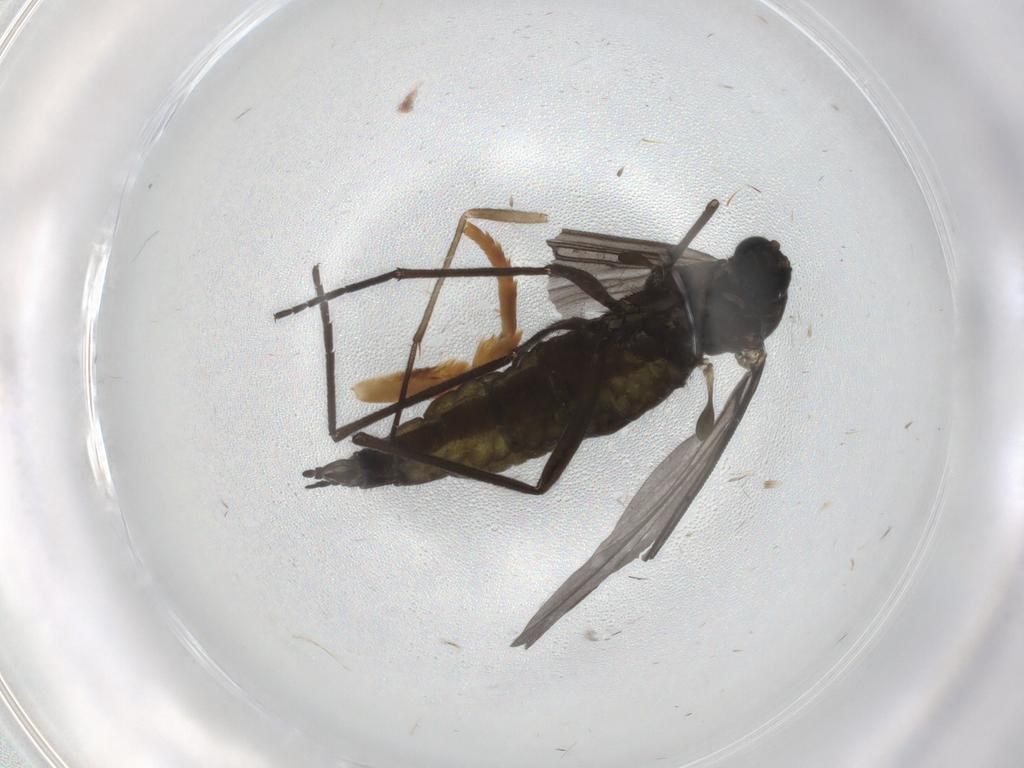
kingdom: Animalia
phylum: Arthropoda
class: Insecta
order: Diptera
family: Sciaridae
